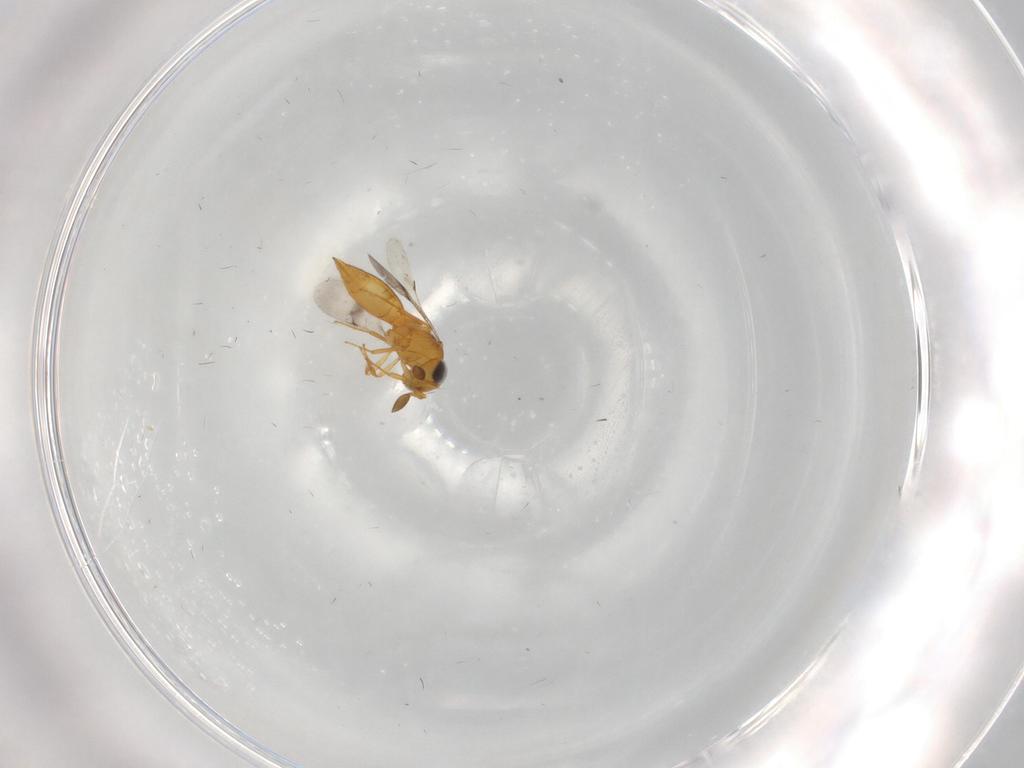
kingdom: Animalia
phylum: Arthropoda
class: Insecta
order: Hymenoptera
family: Scelionidae
